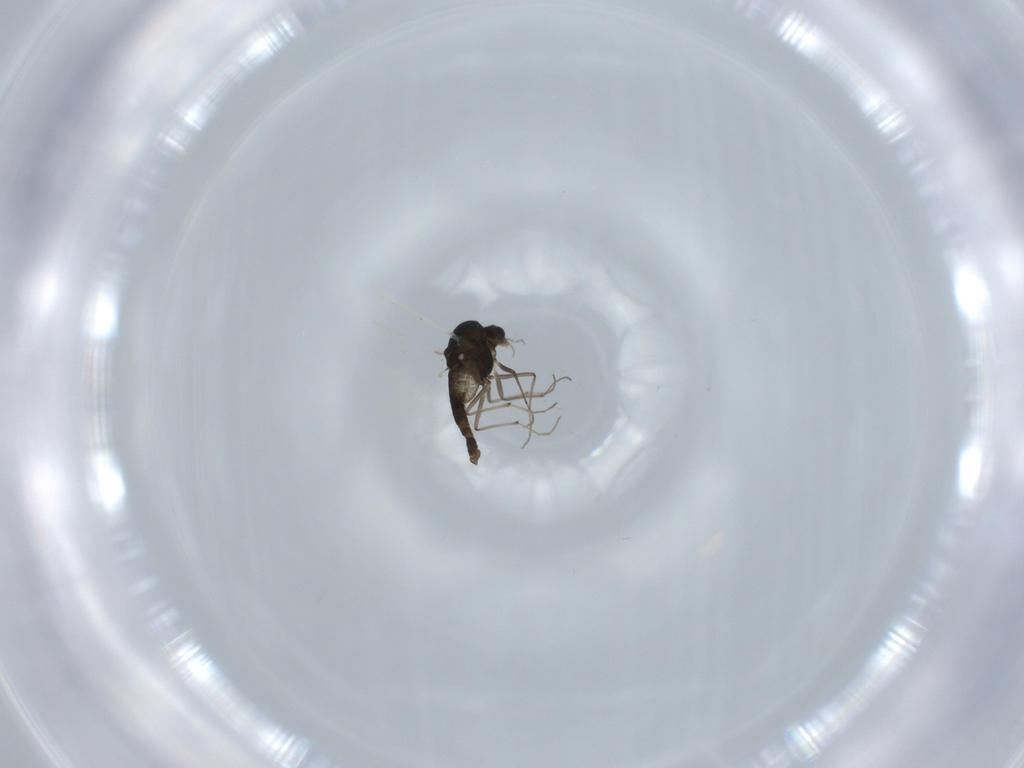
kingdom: Animalia
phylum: Arthropoda
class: Insecta
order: Diptera
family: Chironomidae
